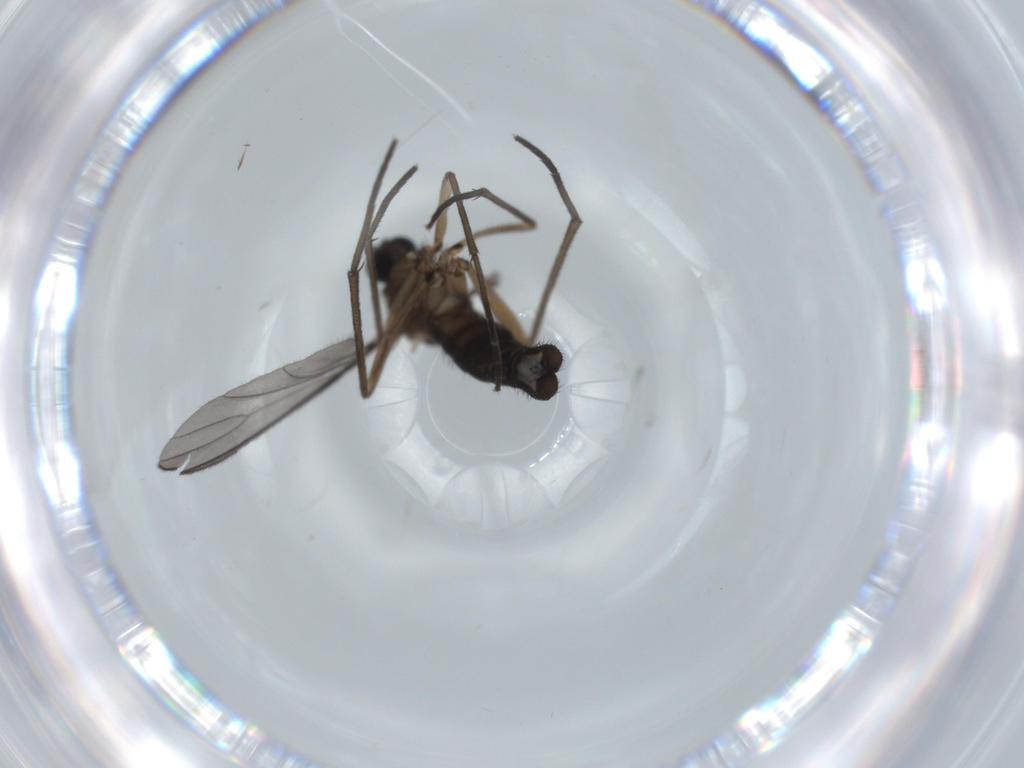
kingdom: Animalia
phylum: Arthropoda
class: Insecta
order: Diptera
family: Sciaridae
